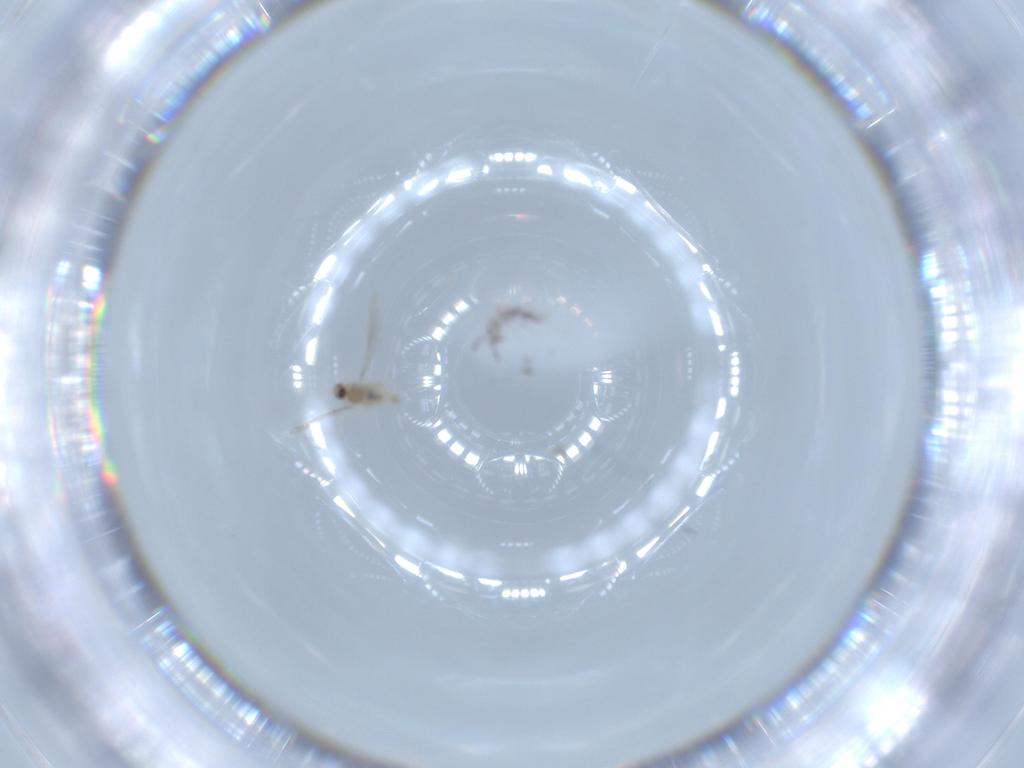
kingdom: Animalia
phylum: Arthropoda
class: Collembola
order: Entomobryomorpha
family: Entomobryidae
